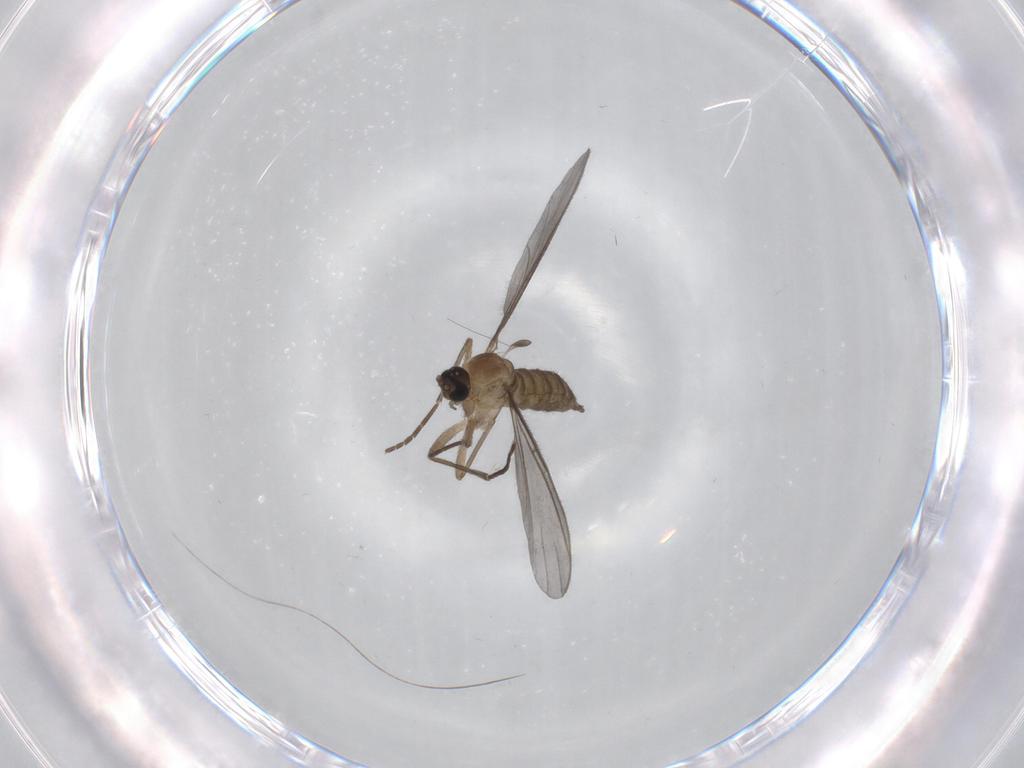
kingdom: Animalia
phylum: Arthropoda
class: Insecta
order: Diptera
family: Sciaridae
